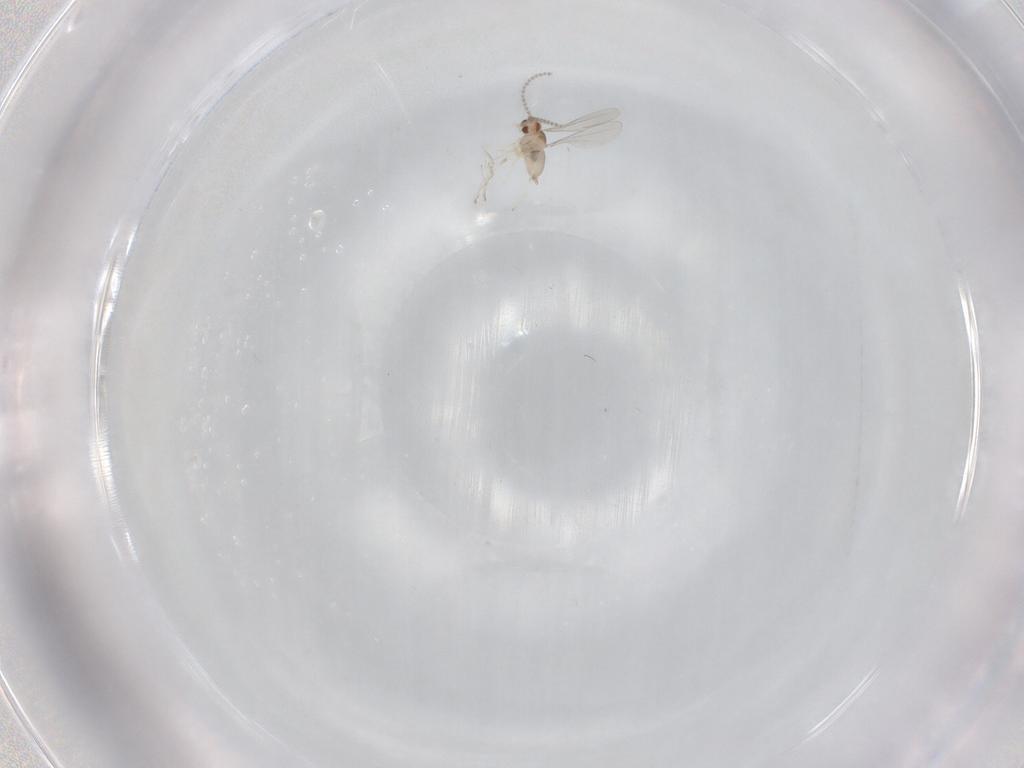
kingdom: Animalia
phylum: Arthropoda
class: Insecta
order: Diptera
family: Cecidomyiidae
